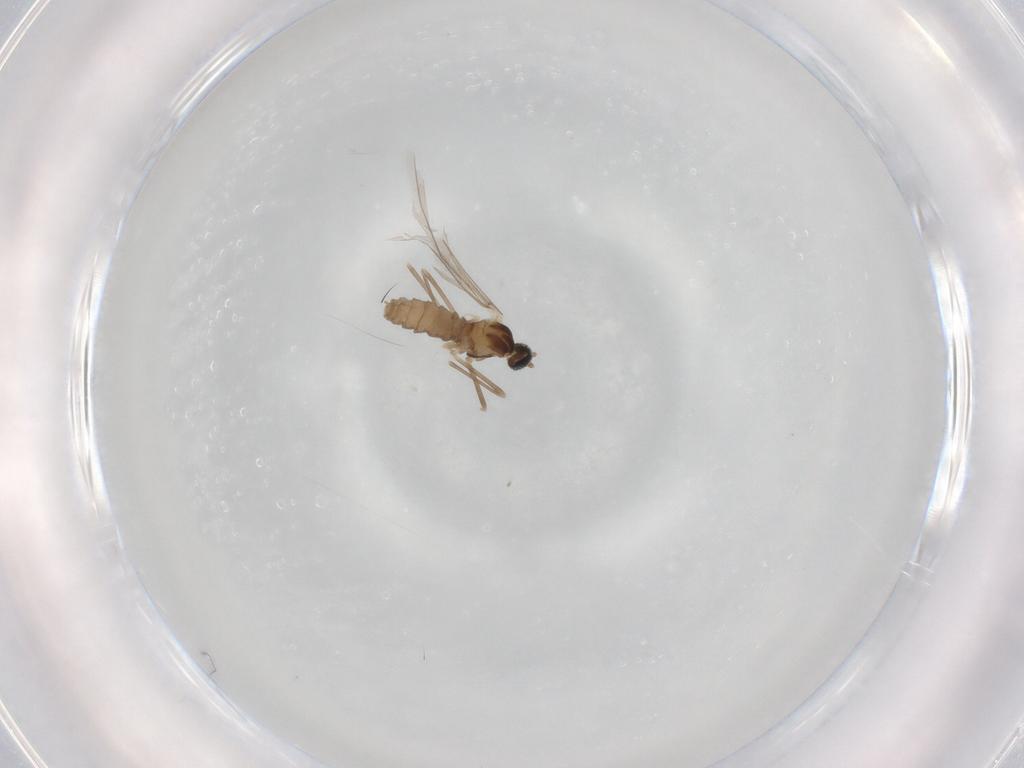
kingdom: Animalia
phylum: Arthropoda
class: Insecta
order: Diptera
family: Cecidomyiidae
